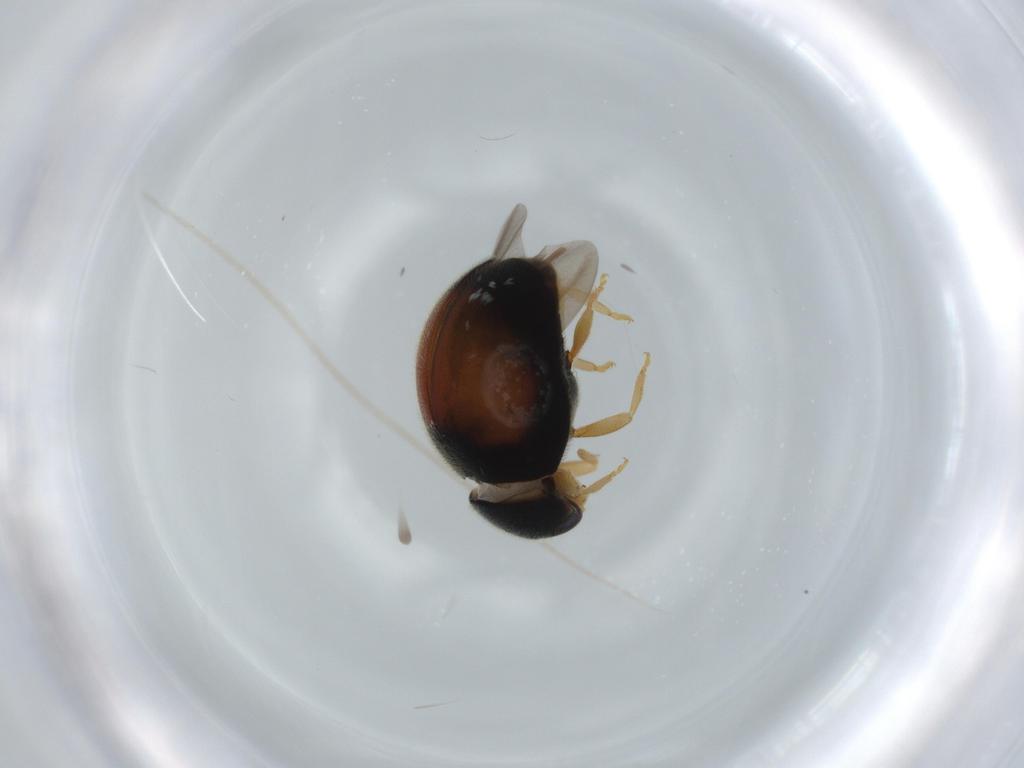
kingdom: Animalia
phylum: Arthropoda
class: Insecta
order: Coleoptera
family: Coccinellidae
